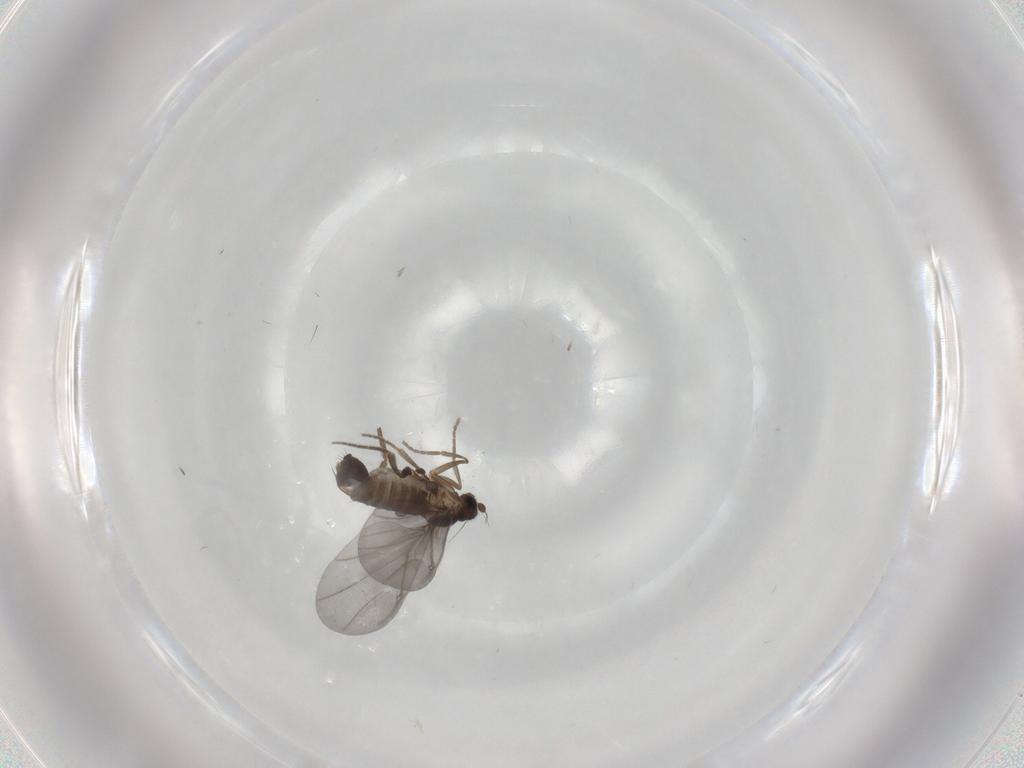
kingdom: Animalia
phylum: Arthropoda
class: Insecta
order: Diptera
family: Phoridae
